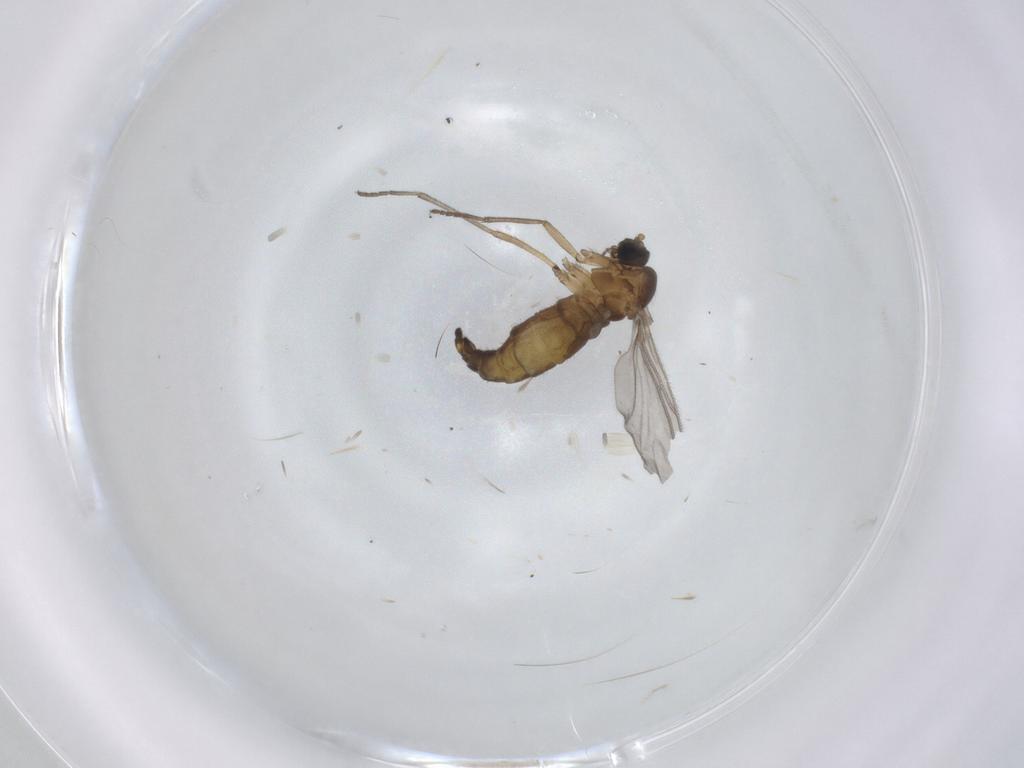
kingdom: Animalia
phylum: Arthropoda
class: Insecta
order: Diptera
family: Sciaridae
